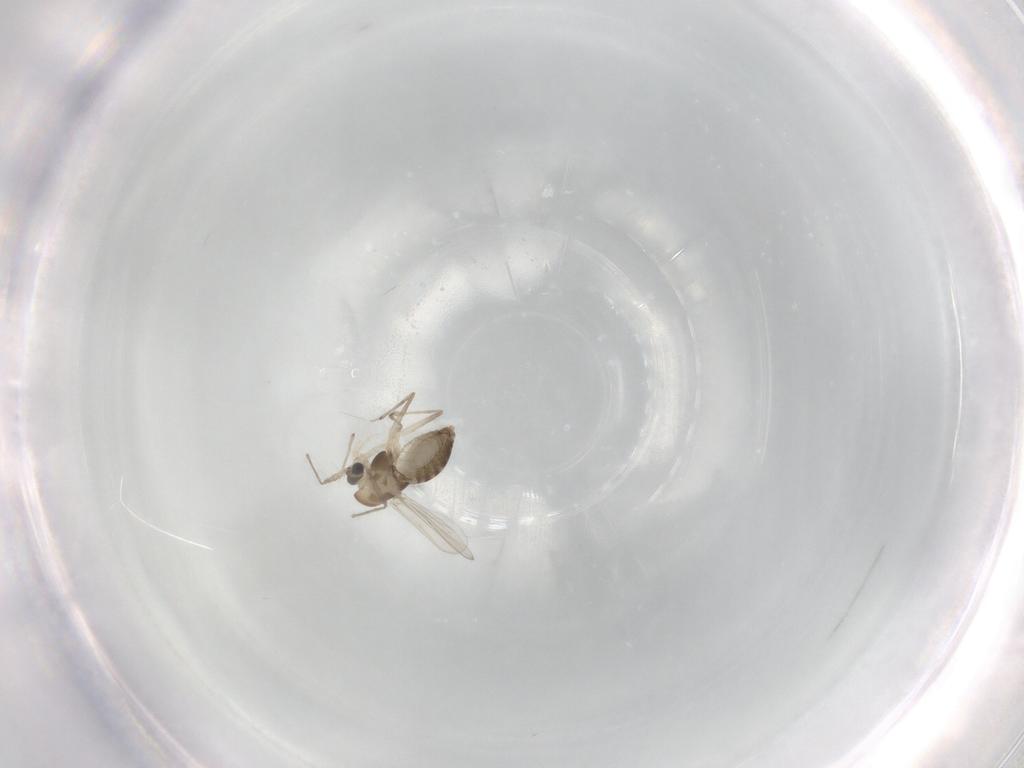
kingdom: Animalia
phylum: Arthropoda
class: Insecta
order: Diptera
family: Chironomidae
